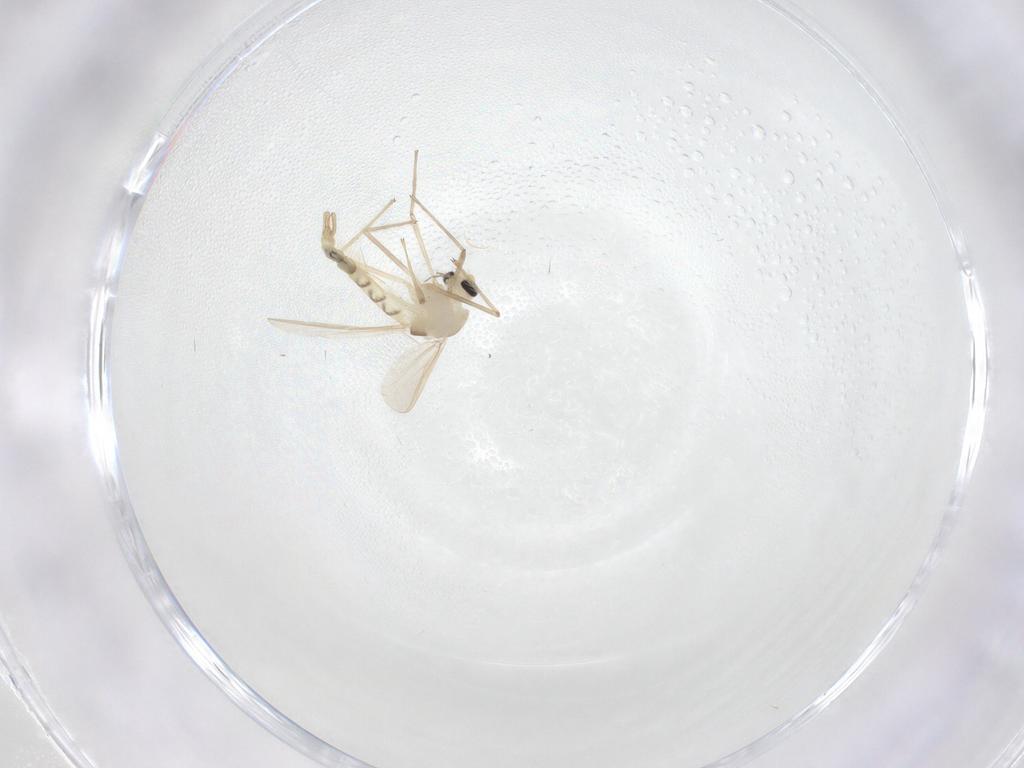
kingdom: Animalia
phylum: Arthropoda
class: Insecta
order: Diptera
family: Chironomidae
